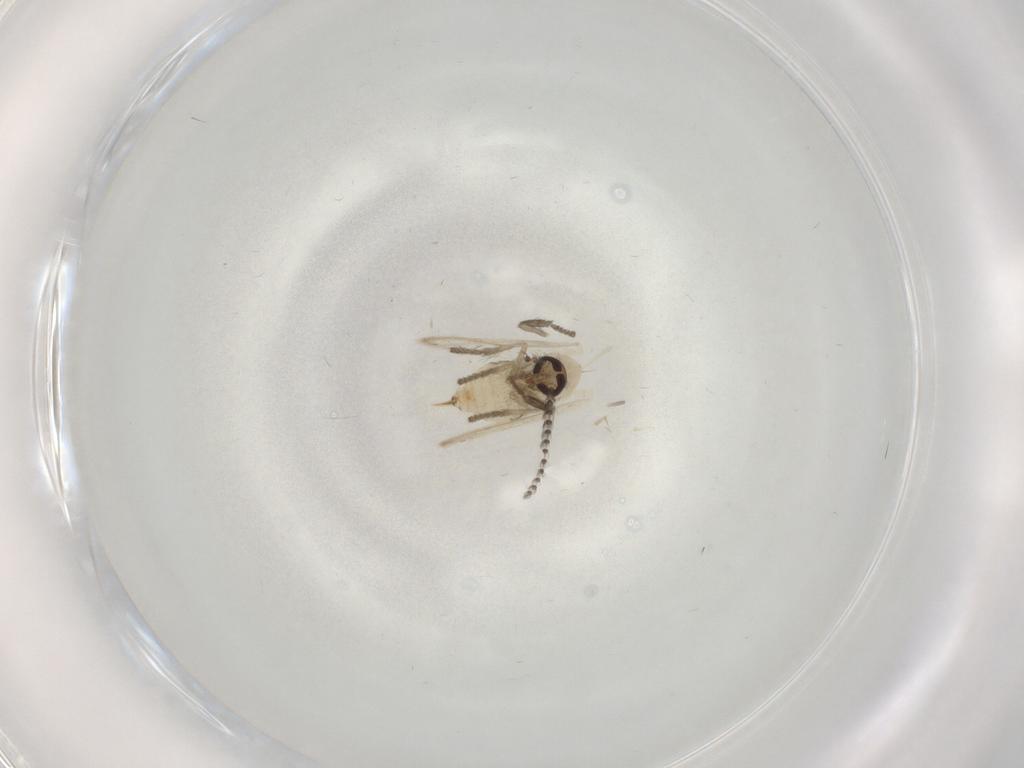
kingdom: Animalia
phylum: Arthropoda
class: Insecta
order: Diptera
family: Psychodidae
